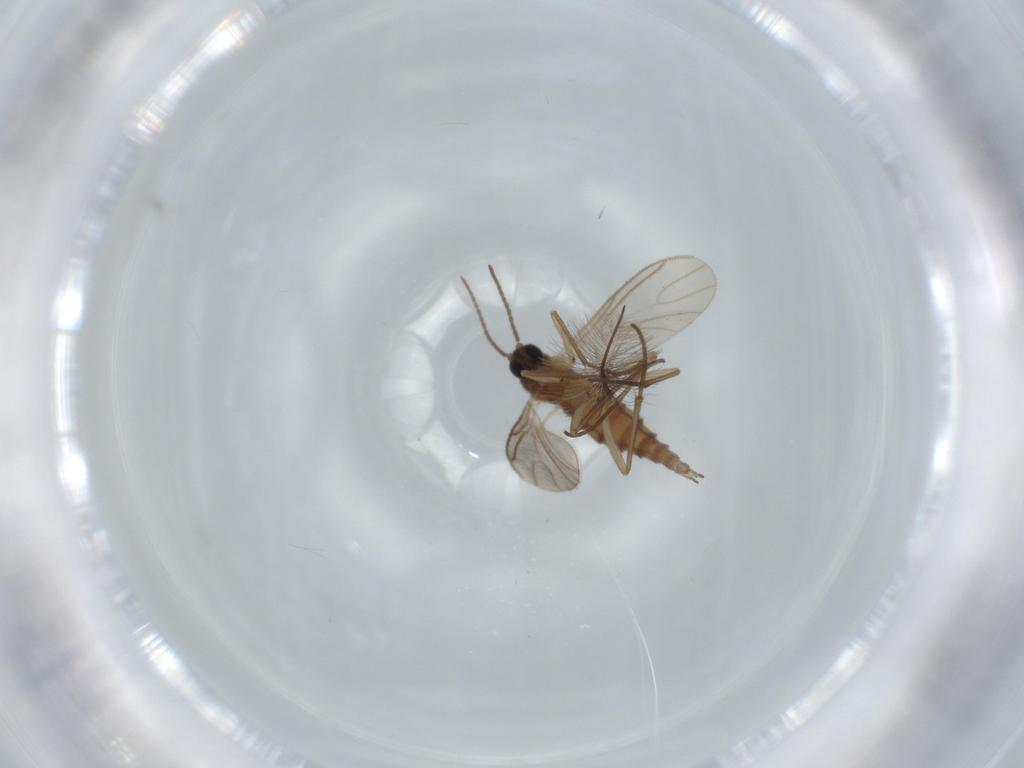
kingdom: Animalia
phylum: Arthropoda
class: Insecta
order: Diptera
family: Sciaridae
